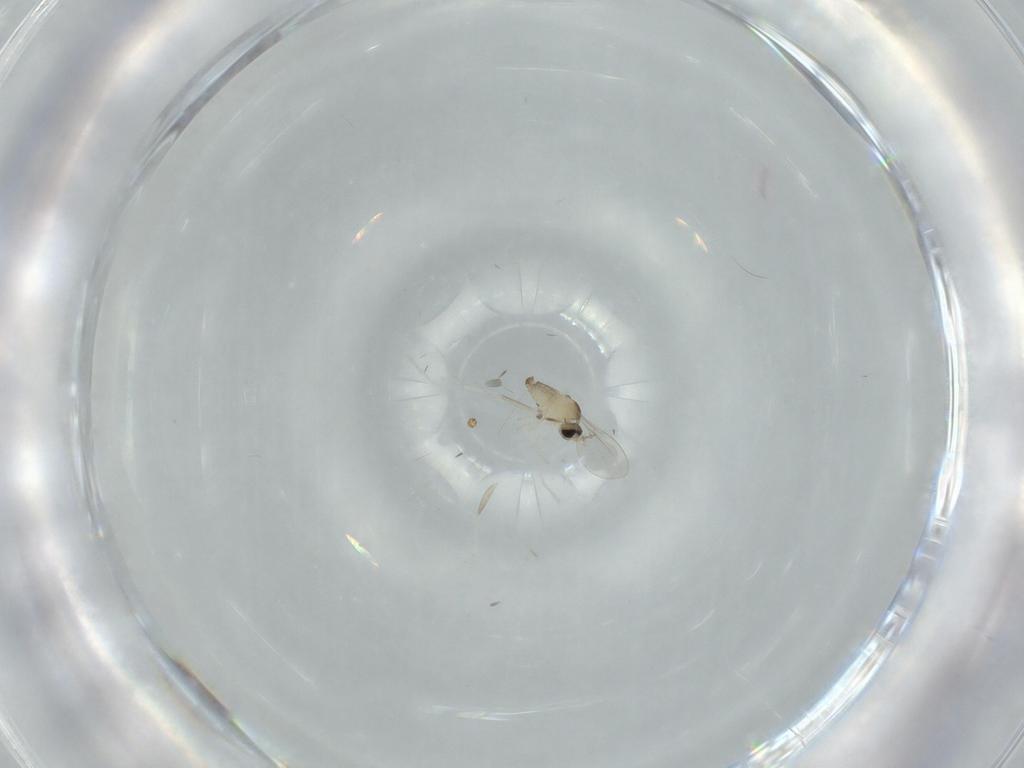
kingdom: Animalia
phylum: Arthropoda
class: Insecta
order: Diptera
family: Cecidomyiidae
